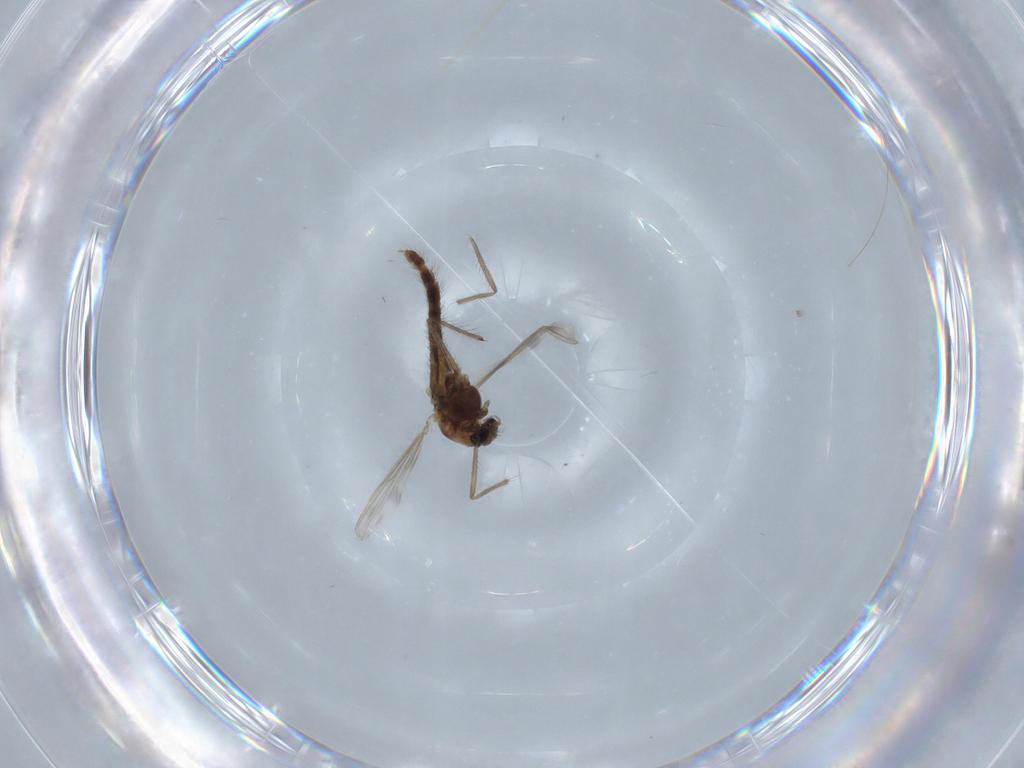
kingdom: Animalia
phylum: Arthropoda
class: Insecta
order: Diptera
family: Chironomidae
